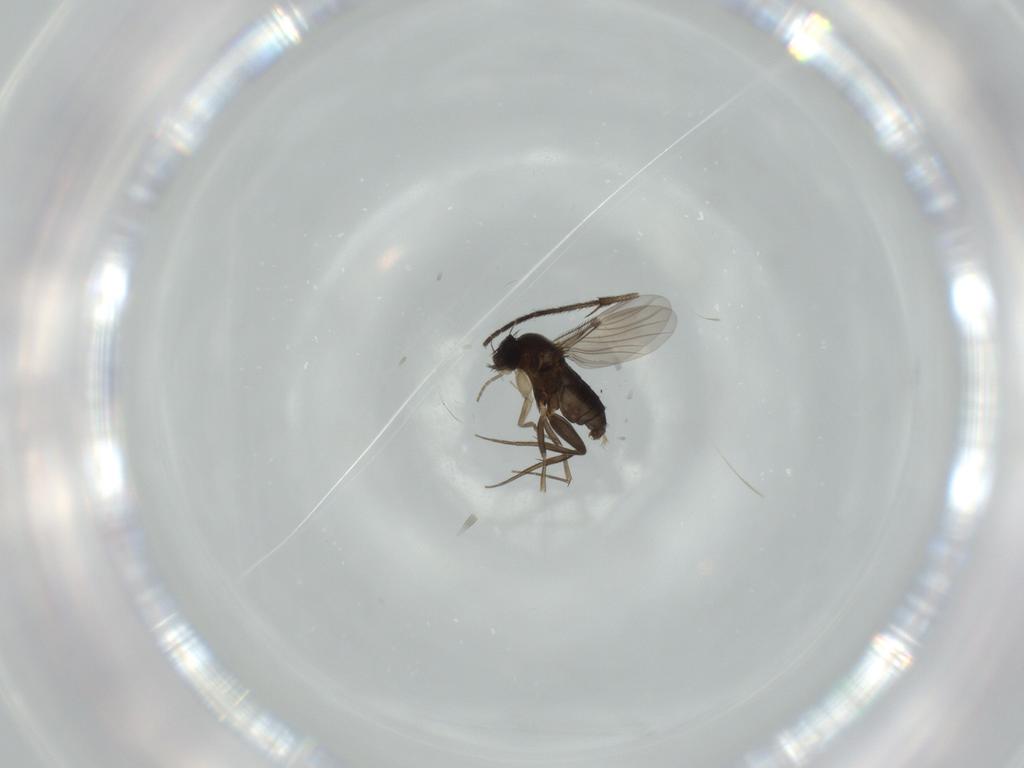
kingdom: Animalia
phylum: Arthropoda
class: Insecta
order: Diptera
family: Phoridae
